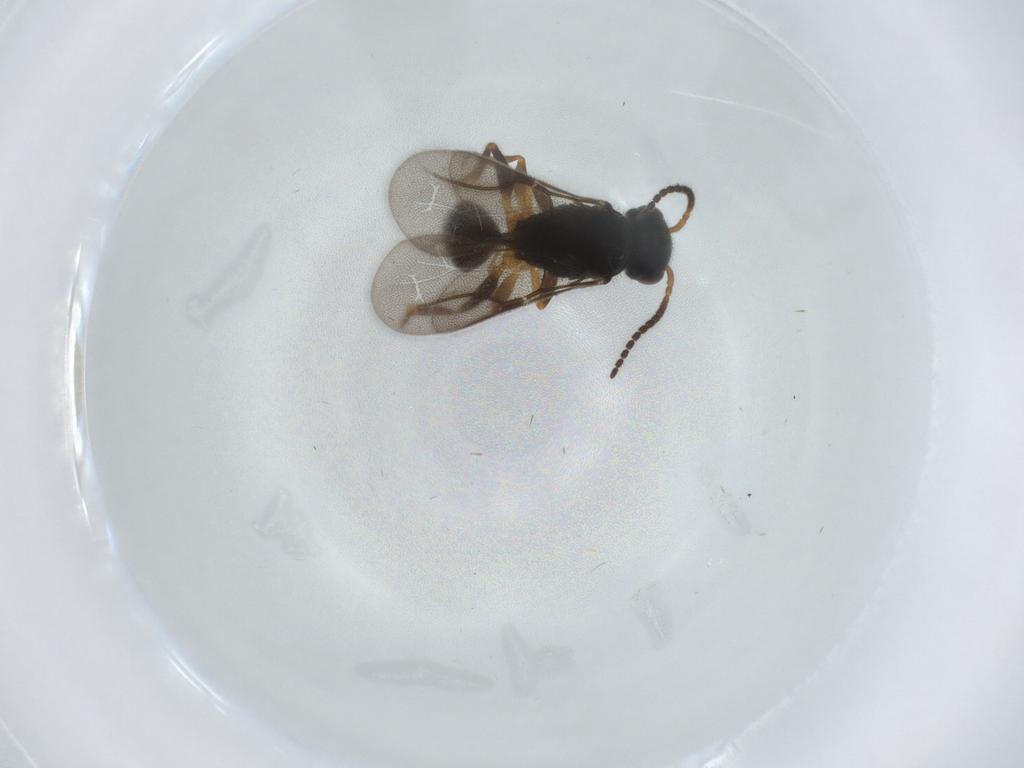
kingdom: Animalia
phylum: Arthropoda
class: Insecta
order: Hymenoptera
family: Bethylidae
